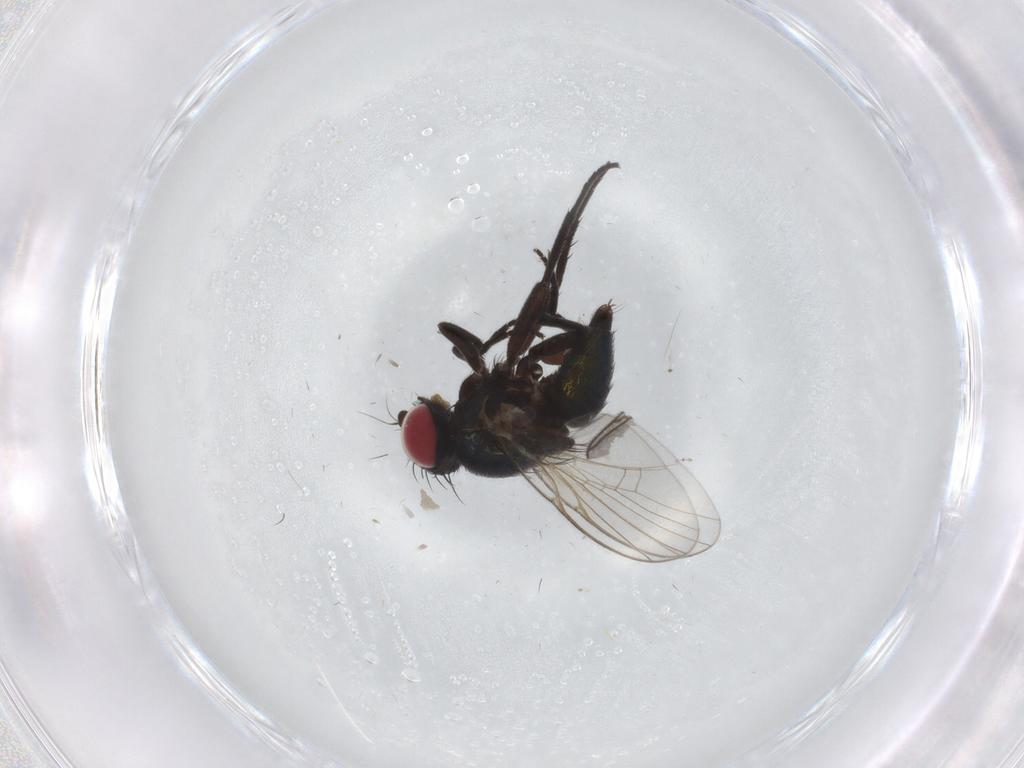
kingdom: Animalia
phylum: Arthropoda
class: Insecta
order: Diptera
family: Agromyzidae
